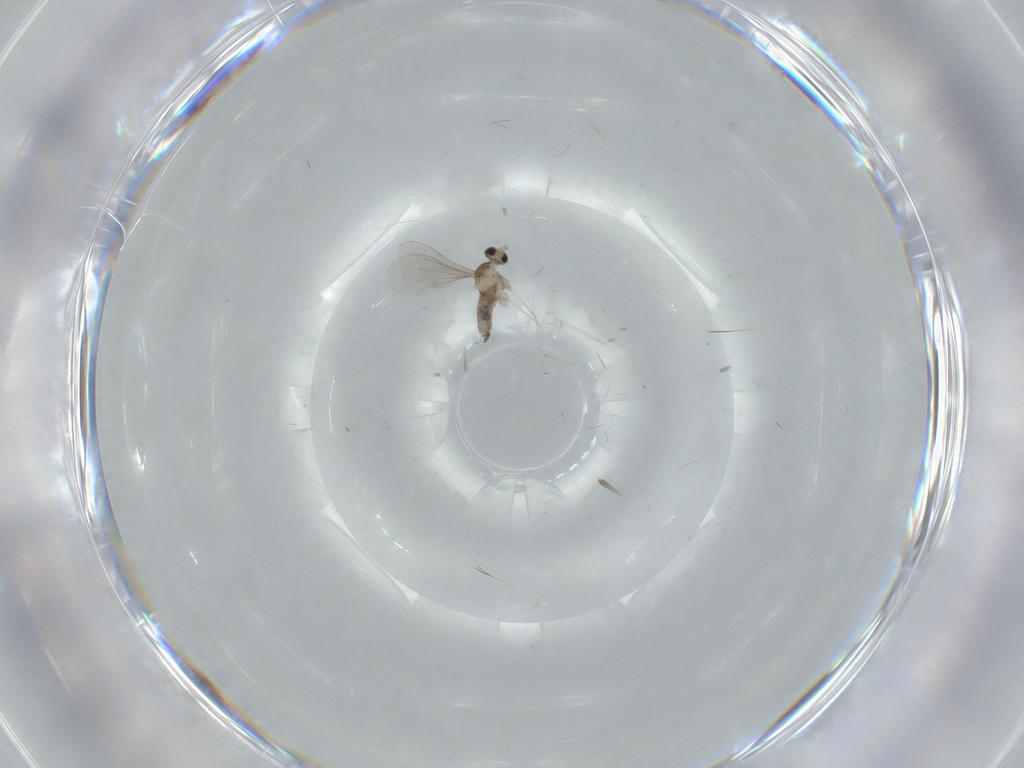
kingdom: Animalia
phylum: Arthropoda
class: Insecta
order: Diptera
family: Cecidomyiidae
